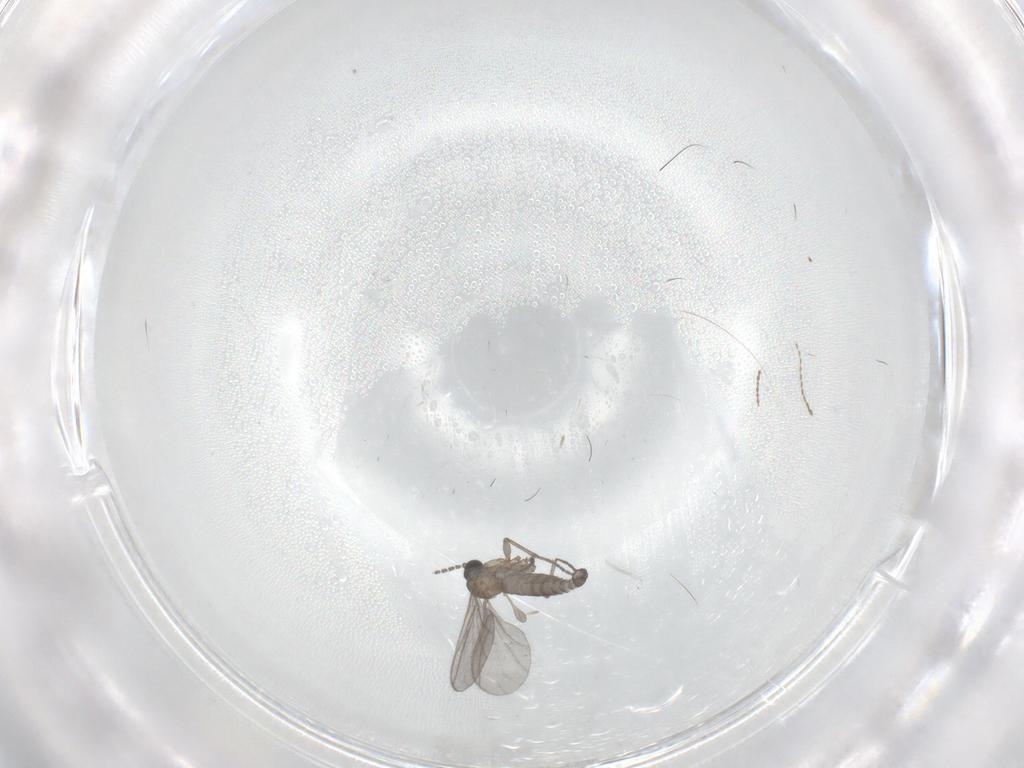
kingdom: Animalia
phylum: Arthropoda
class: Insecta
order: Diptera
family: Sciaridae
